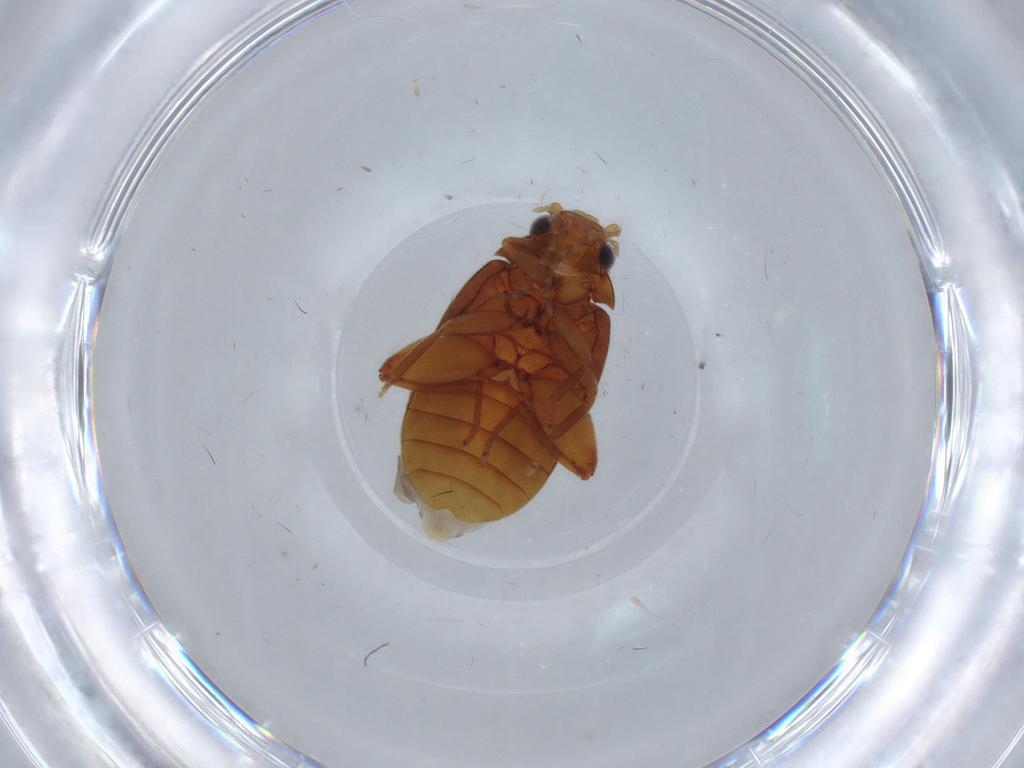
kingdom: Animalia
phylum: Arthropoda
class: Insecta
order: Coleoptera
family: Scirtidae
